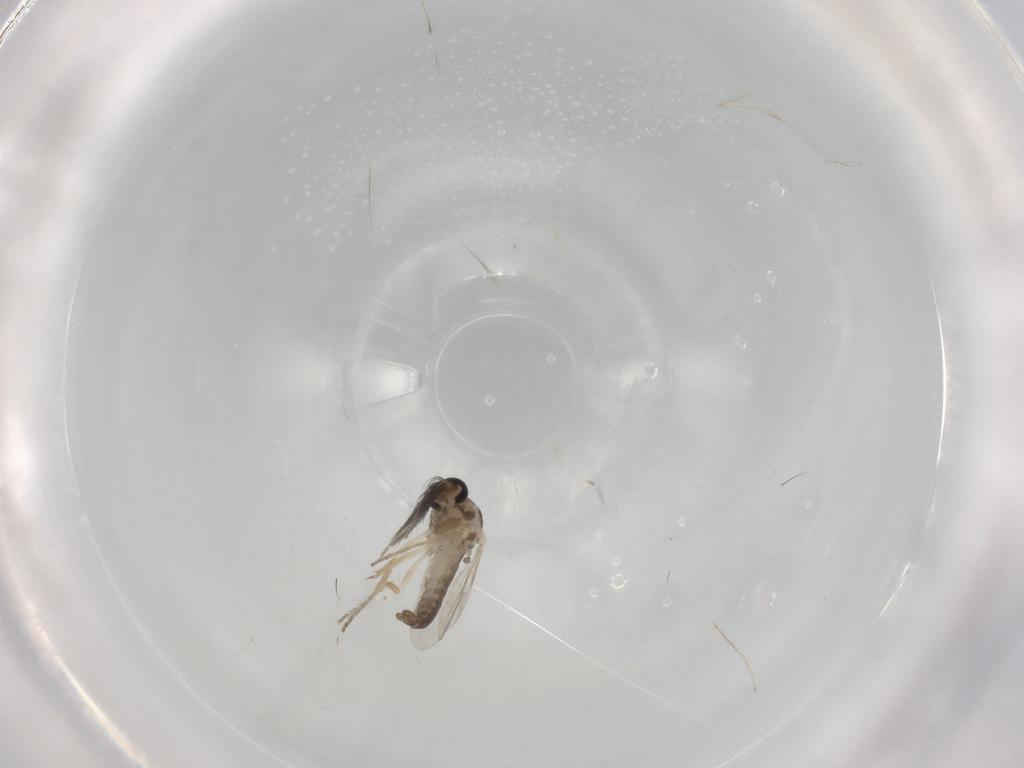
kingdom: Animalia
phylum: Arthropoda
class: Insecta
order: Diptera
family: Ceratopogonidae
